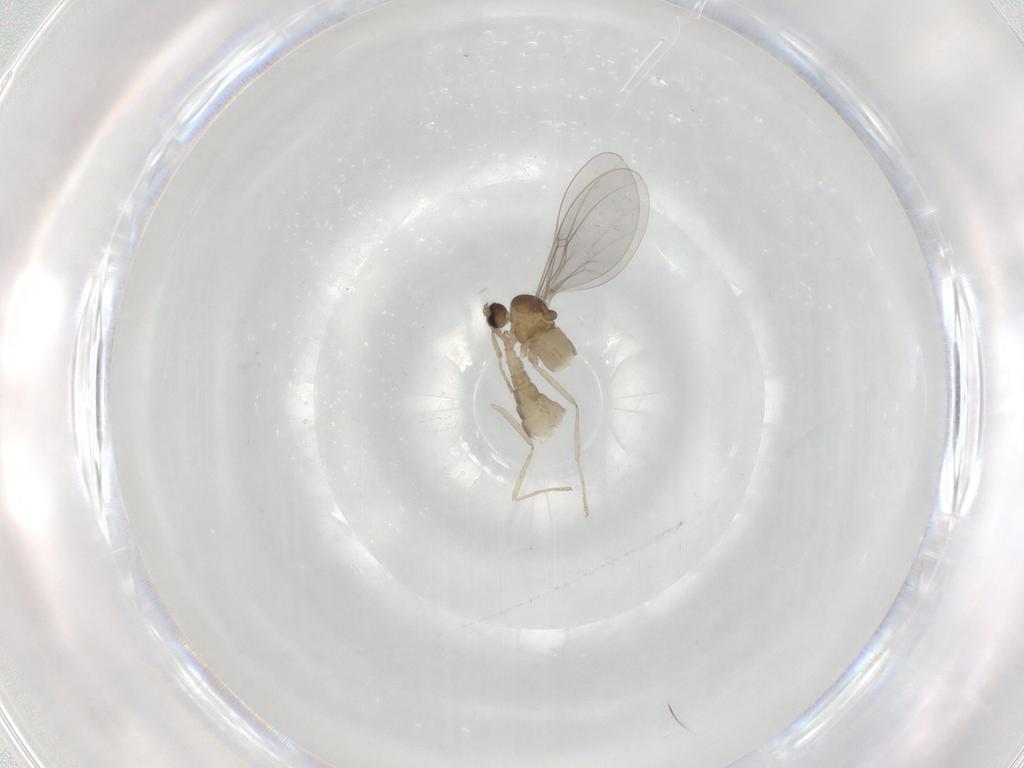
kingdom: Animalia
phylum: Arthropoda
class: Insecta
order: Diptera
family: Cecidomyiidae
